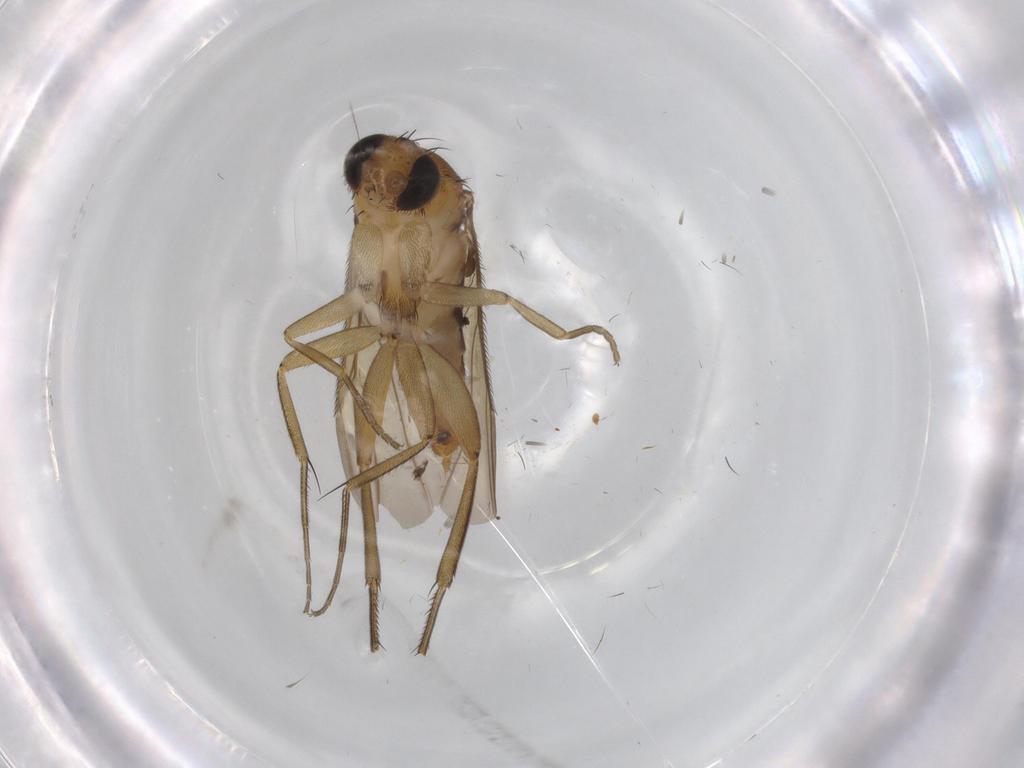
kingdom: Animalia
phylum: Arthropoda
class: Insecta
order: Diptera
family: Phoridae
